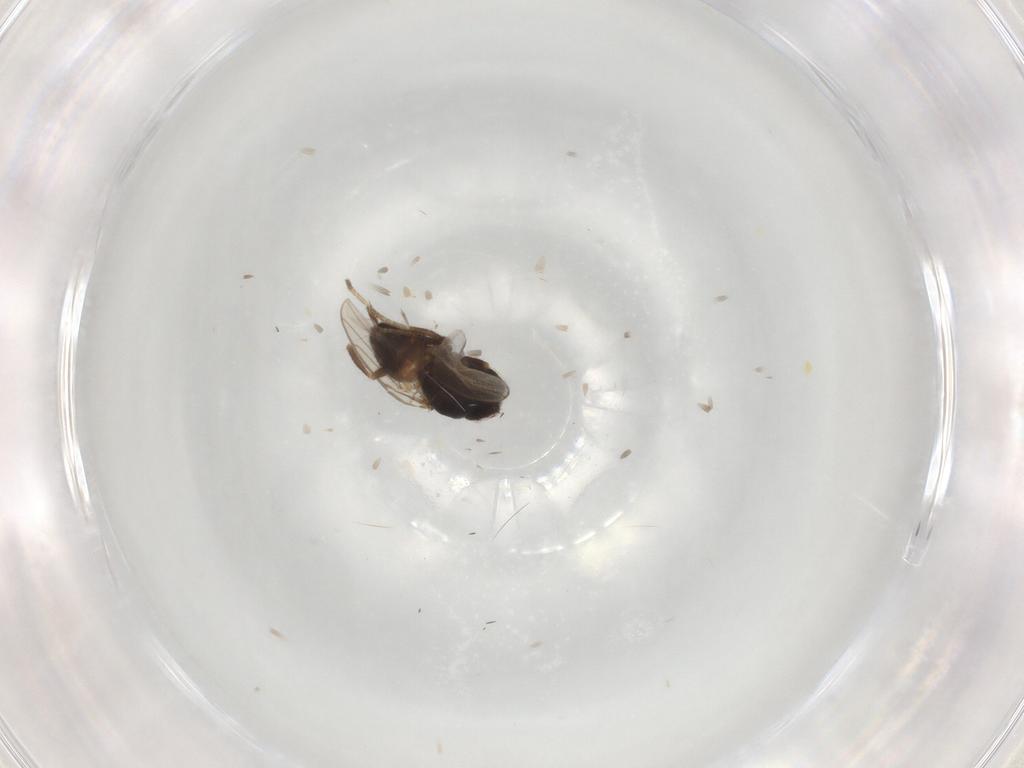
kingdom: Animalia
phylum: Arthropoda
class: Insecta
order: Diptera
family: Chloropidae
